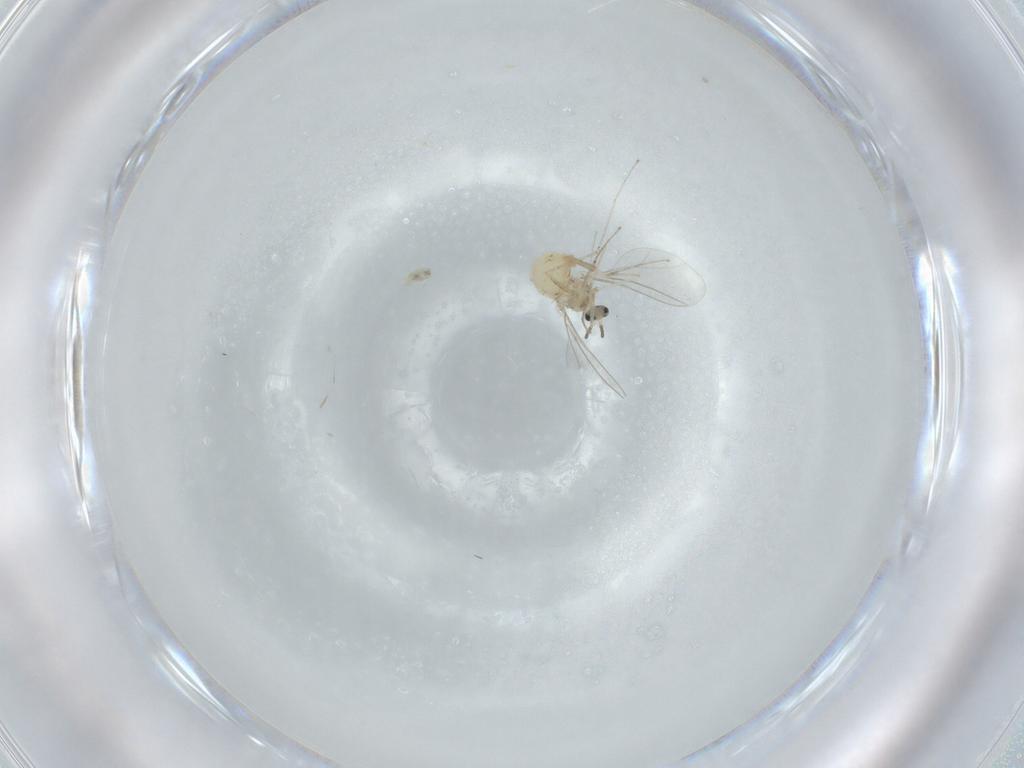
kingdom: Animalia
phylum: Arthropoda
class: Insecta
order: Diptera
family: Cecidomyiidae
